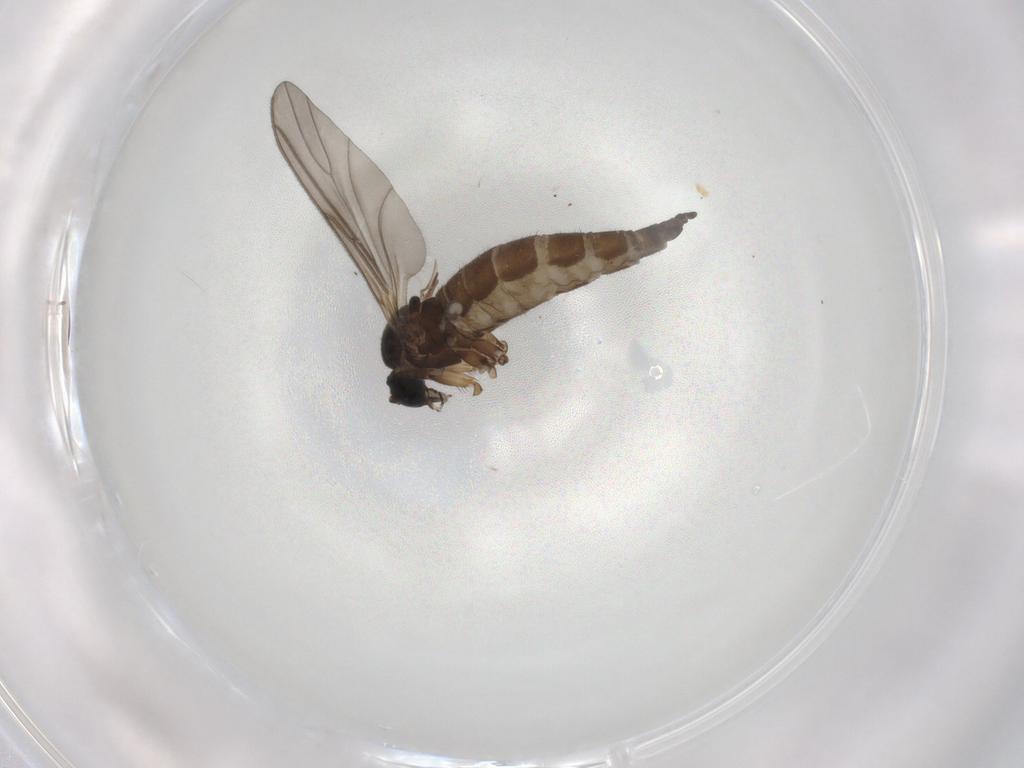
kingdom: Animalia
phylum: Arthropoda
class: Insecta
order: Diptera
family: Sciaridae
